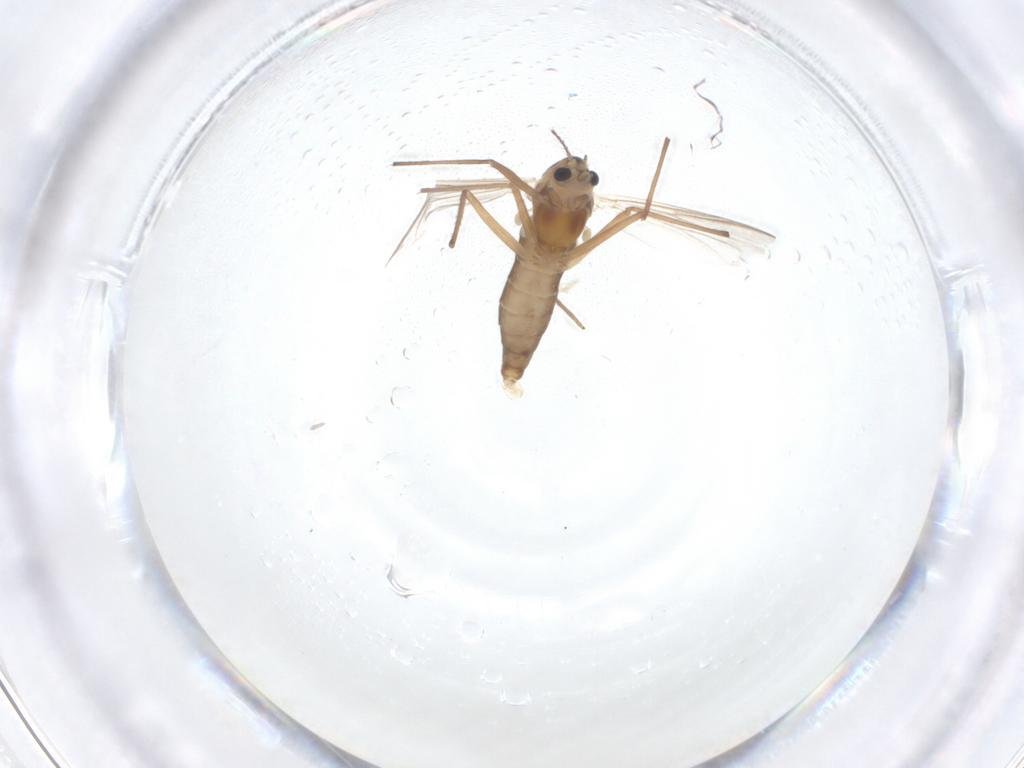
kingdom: Animalia
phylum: Arthropoda
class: Insecta
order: Diptera
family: Chironomidae
